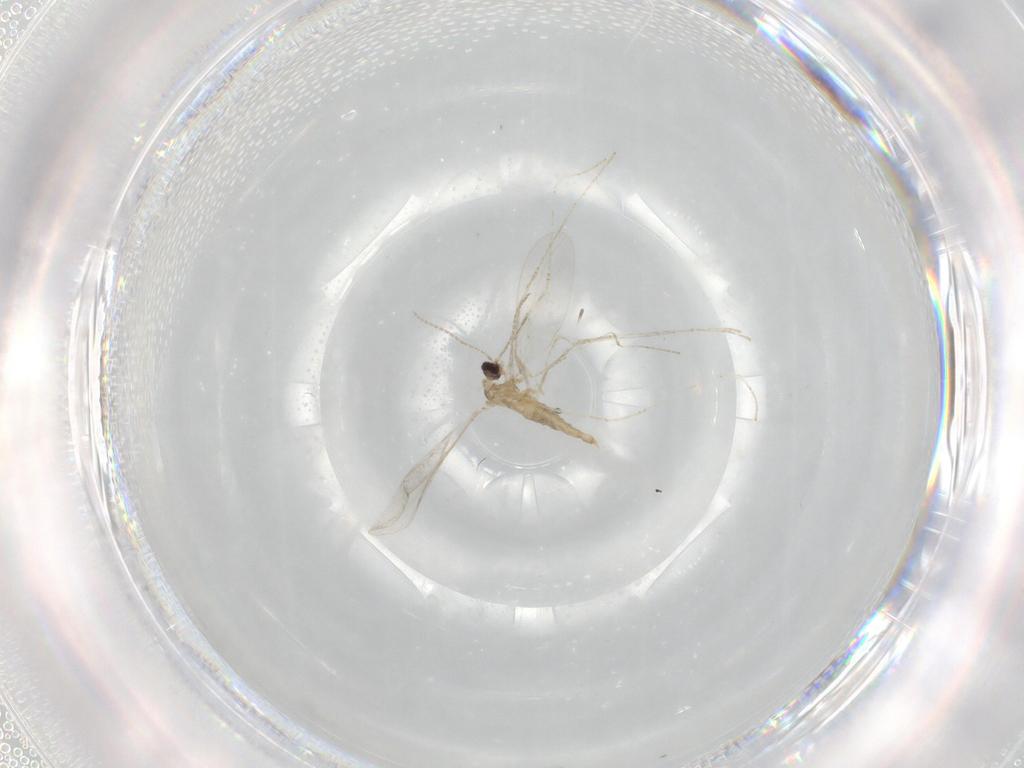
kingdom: Animalia
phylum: Arthropoda
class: Insecta
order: Diptera
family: Cecidomyiidae
